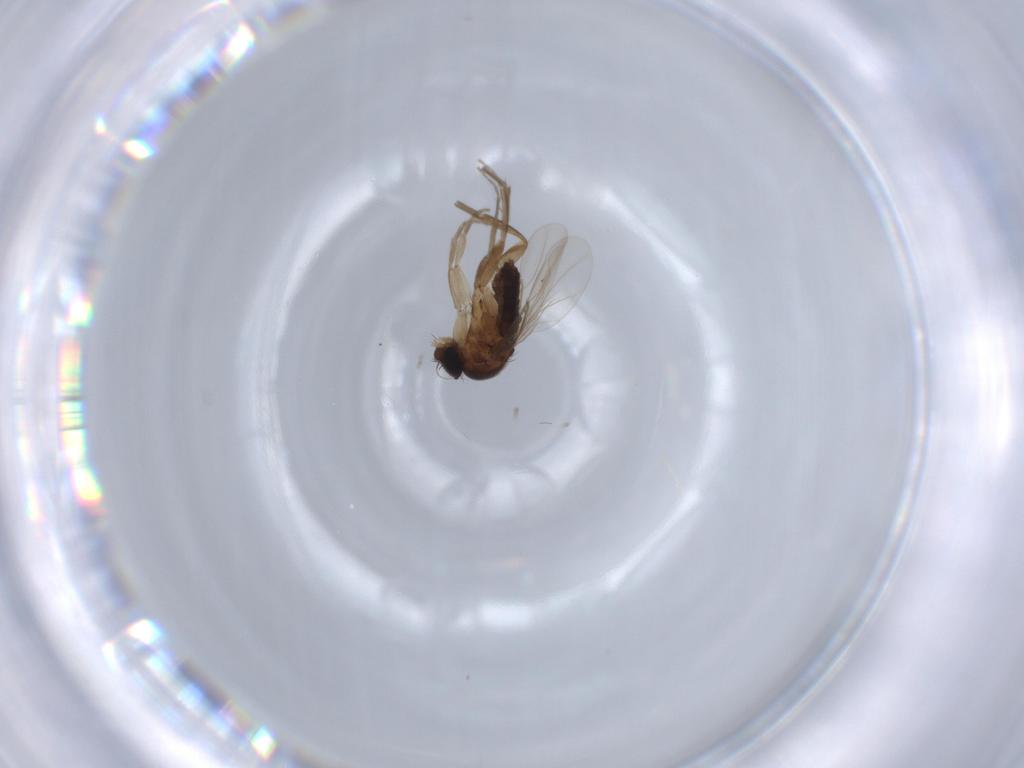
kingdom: Animalia
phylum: Arthropoda
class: Insecta
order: Diptera
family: Phoridae
